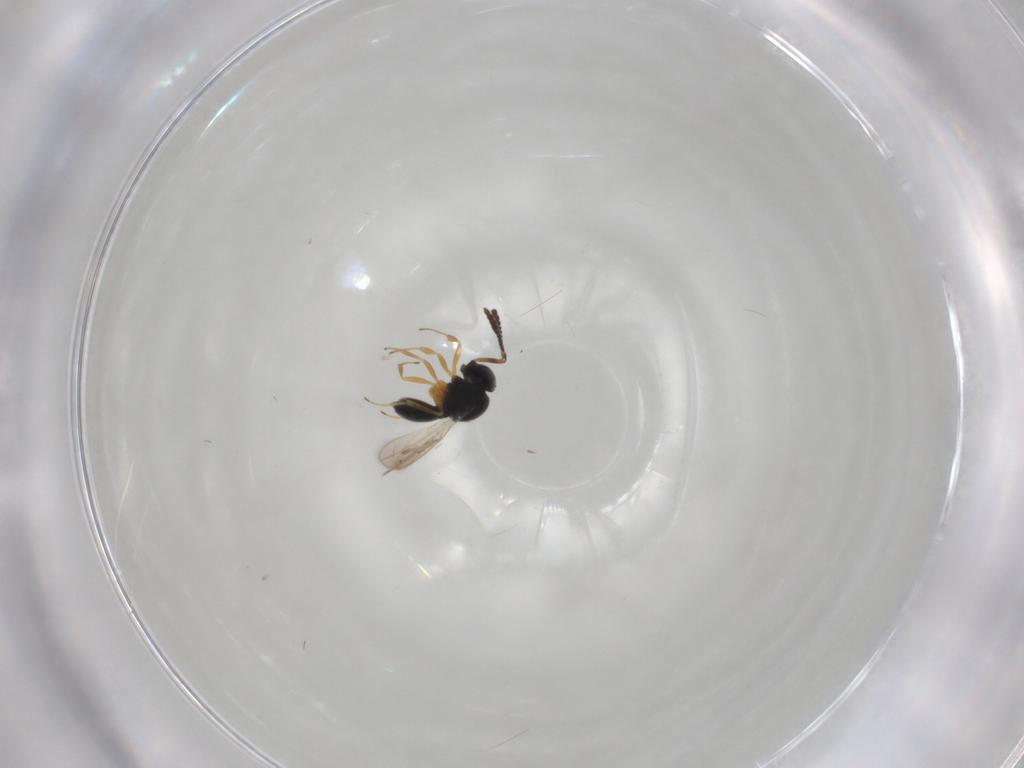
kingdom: Animalia
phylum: Arthropoda
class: Insecta
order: Hymenoptera
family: Scelionidae
